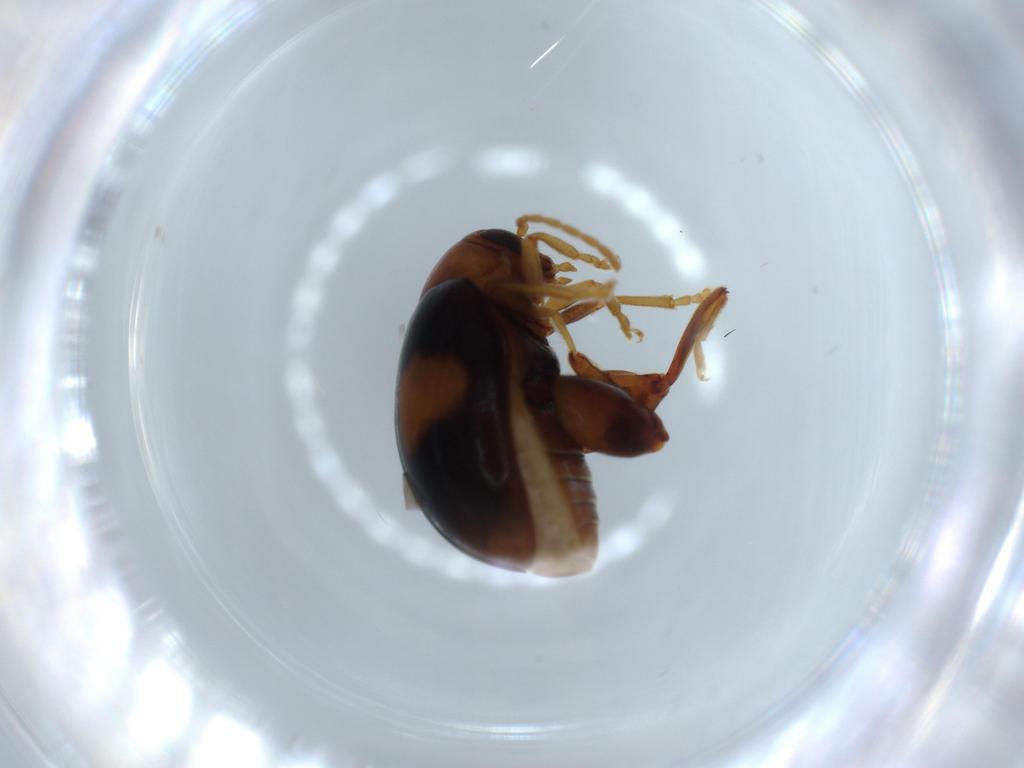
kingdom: Animalia
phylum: Arthropoda
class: Insecta
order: Coleoptera
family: Chrysomelidae
